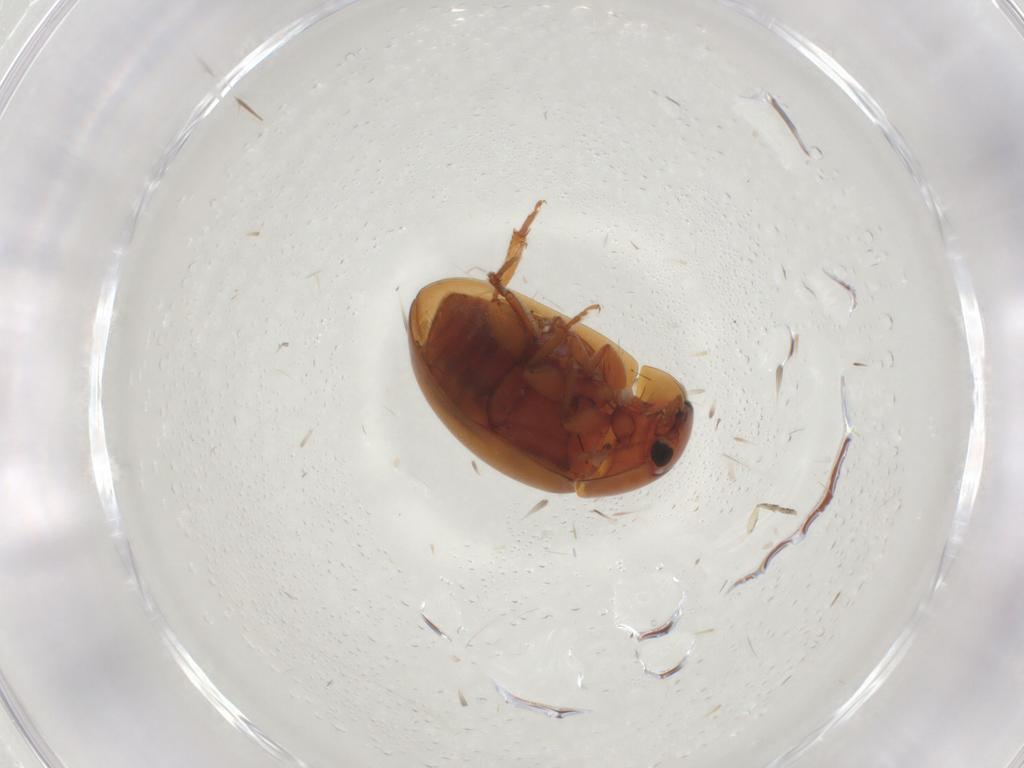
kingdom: Animalia
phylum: Arthropoda
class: Insecta
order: Coleoptera
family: Phalacridae
